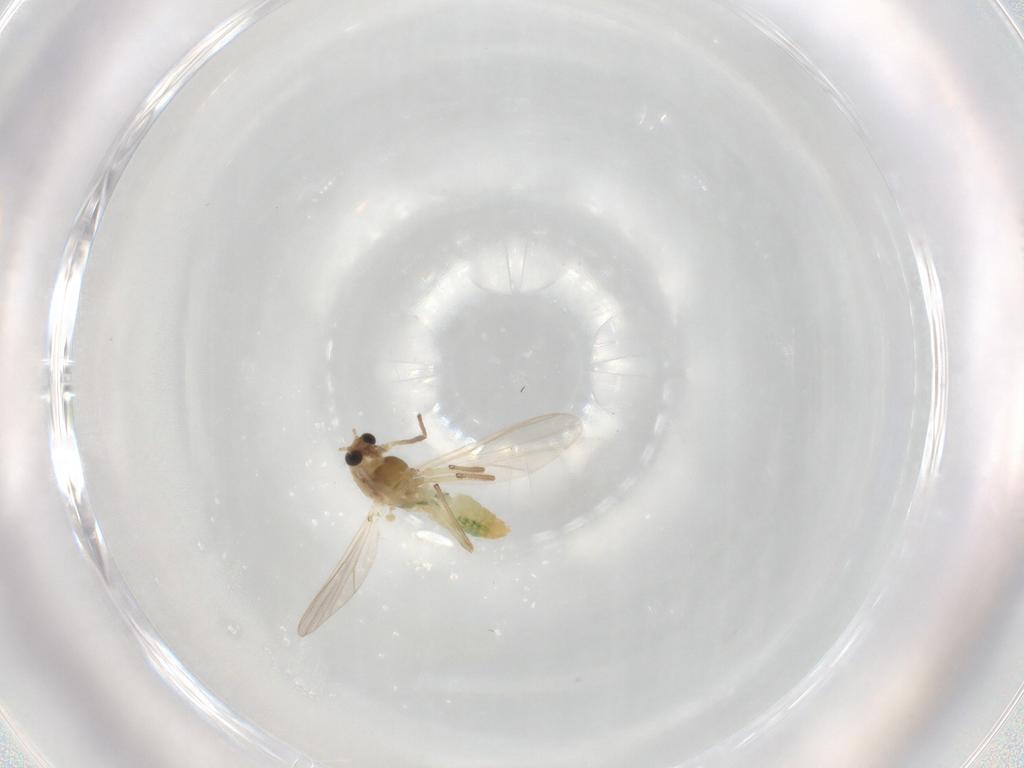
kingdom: Animalia
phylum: Arthropoda
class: Insecta
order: Diptera
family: Chironomidae
